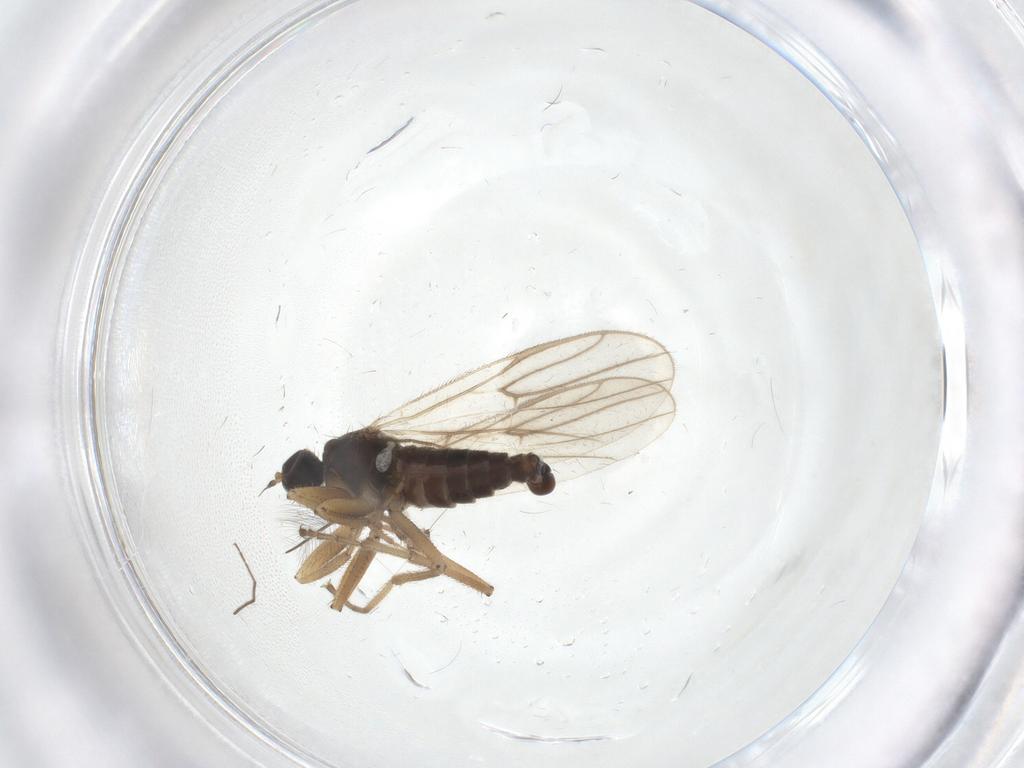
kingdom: Animalia
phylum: Arthropoda
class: Insecta
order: Diptera
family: Hybotidae
